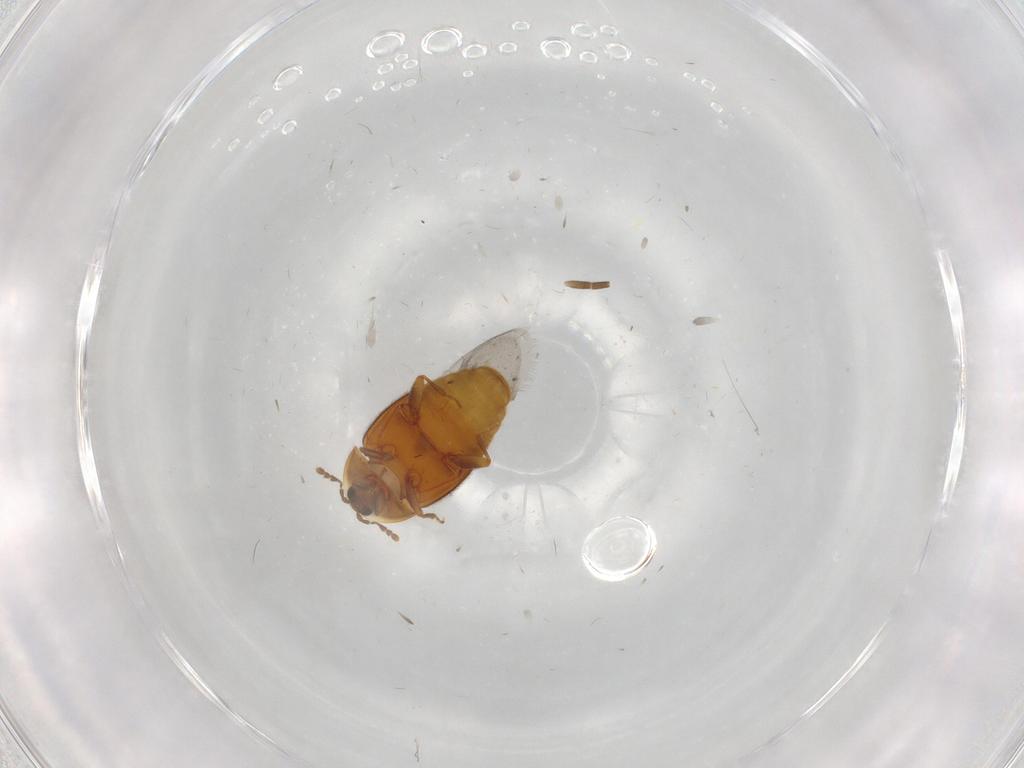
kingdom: Animalia
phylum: Arthropoda
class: Insecta
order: Coleoptera
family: Corylophidae
